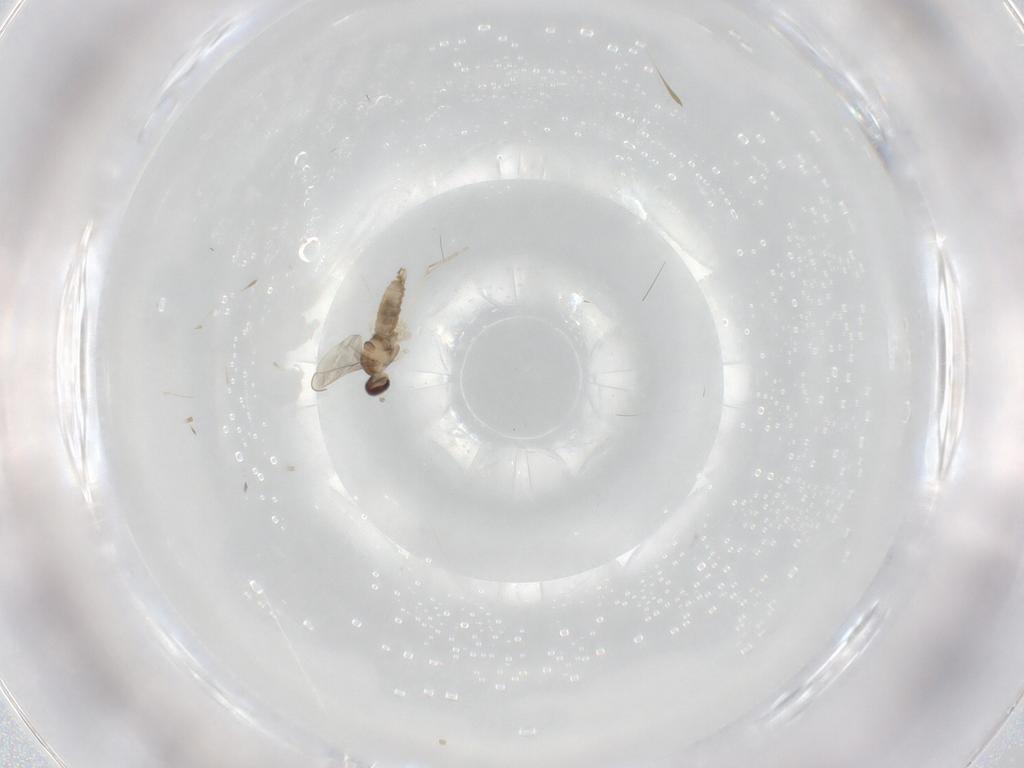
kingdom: Animalia
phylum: Arthropoda
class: Insecta
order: Diptera
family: Cecidomyiidae
